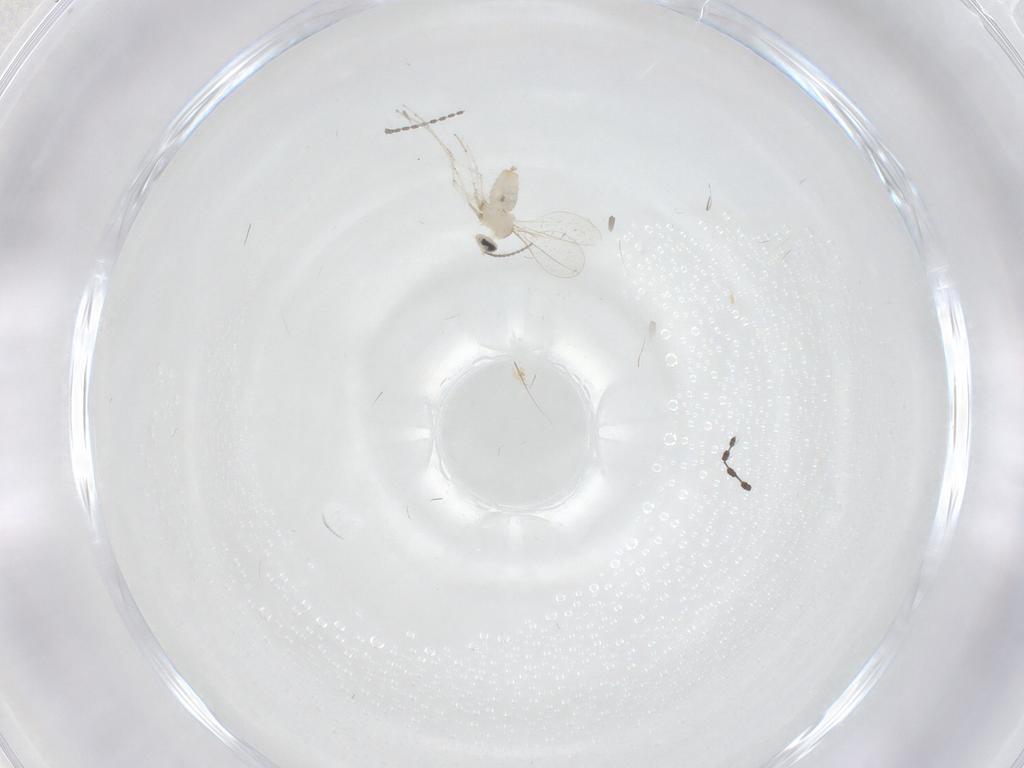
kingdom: Animalia
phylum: Arthropoda
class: Insecta
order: Diptera
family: Cecidomyiidae
